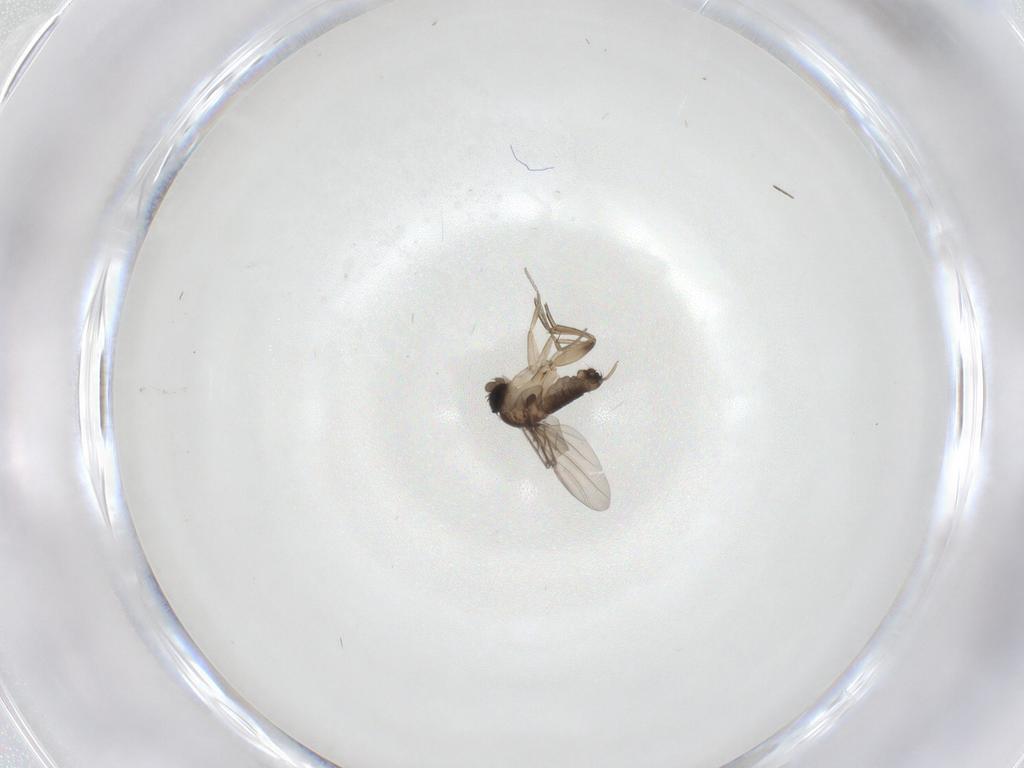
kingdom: Animalia
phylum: Arthropoda
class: Insecta
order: Diptera
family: Phoridae
